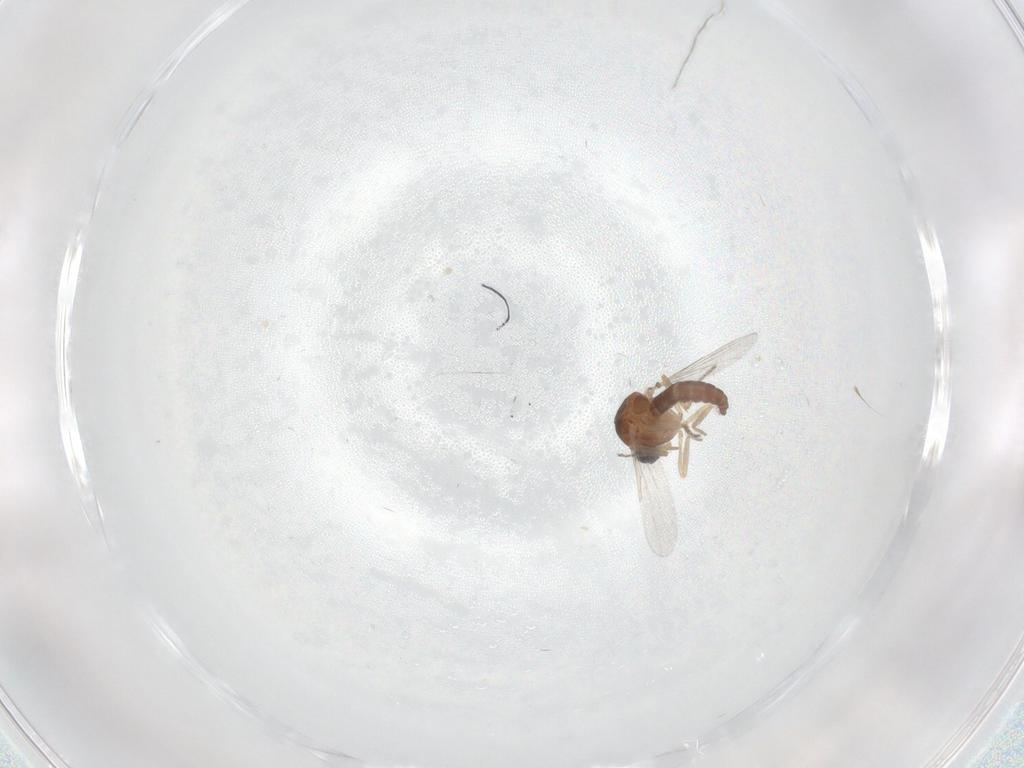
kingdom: Animalia
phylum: Arthropoda
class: Insecta
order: Diptera
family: Ceratopogonidae
